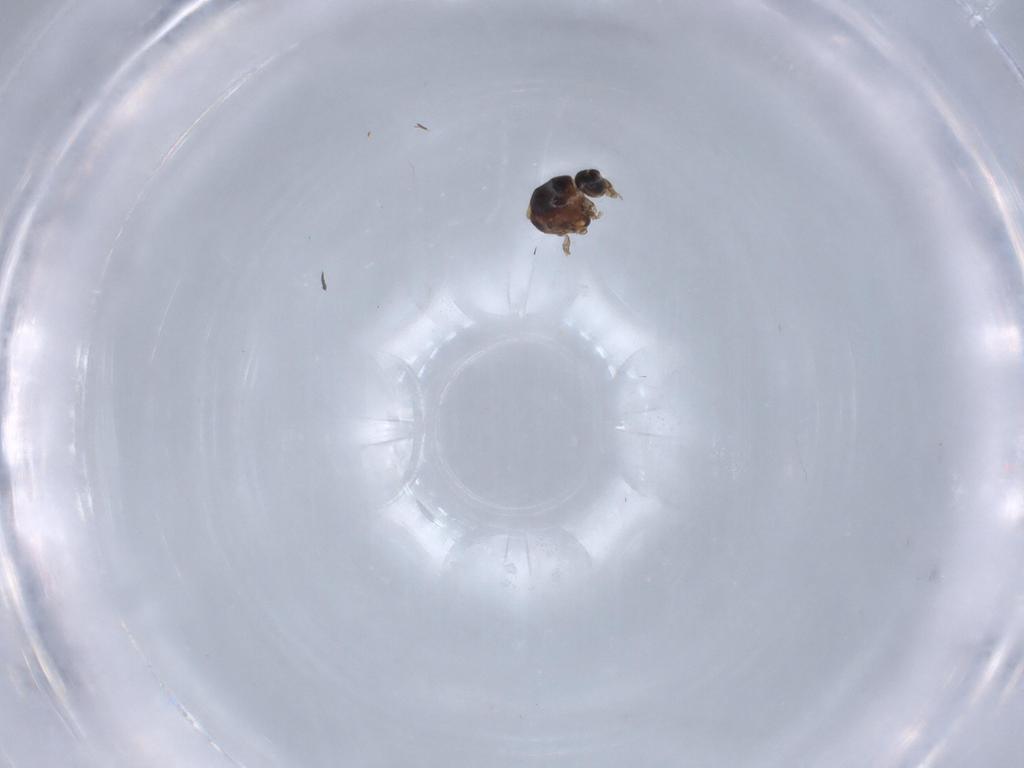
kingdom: Animalia
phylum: Arthropoda
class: Insecta
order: Diptera
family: Ceratopogonidae
